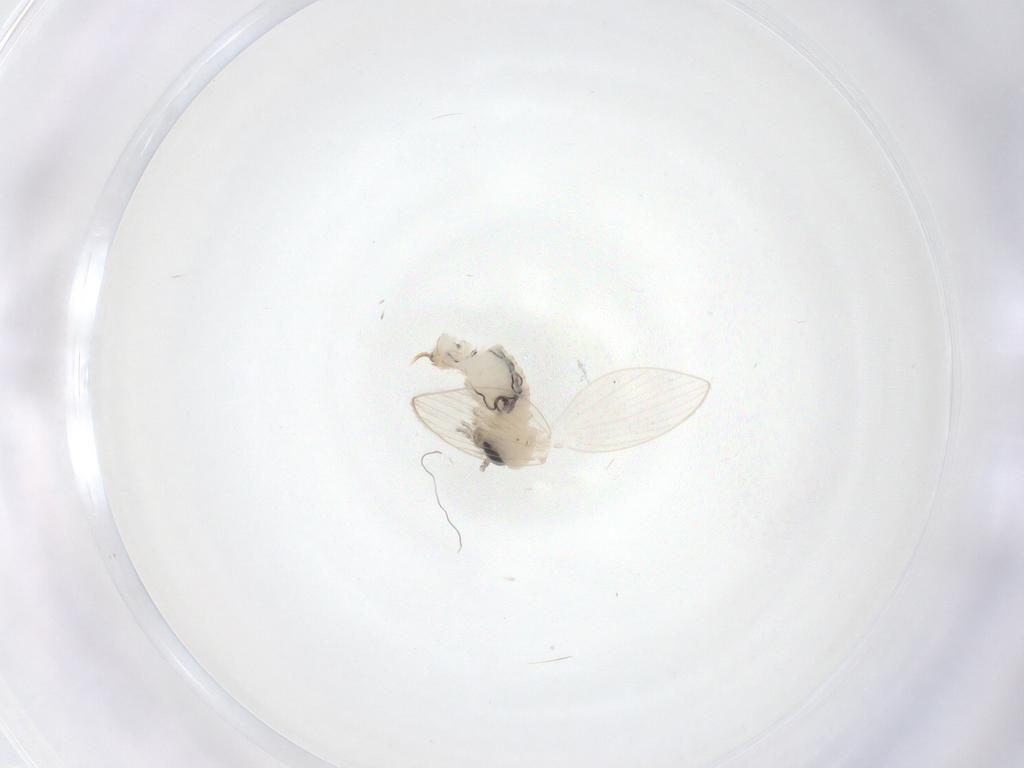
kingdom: Animalia
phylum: Arthropoda
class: Insecta
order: Diptera
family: Psychodidae
